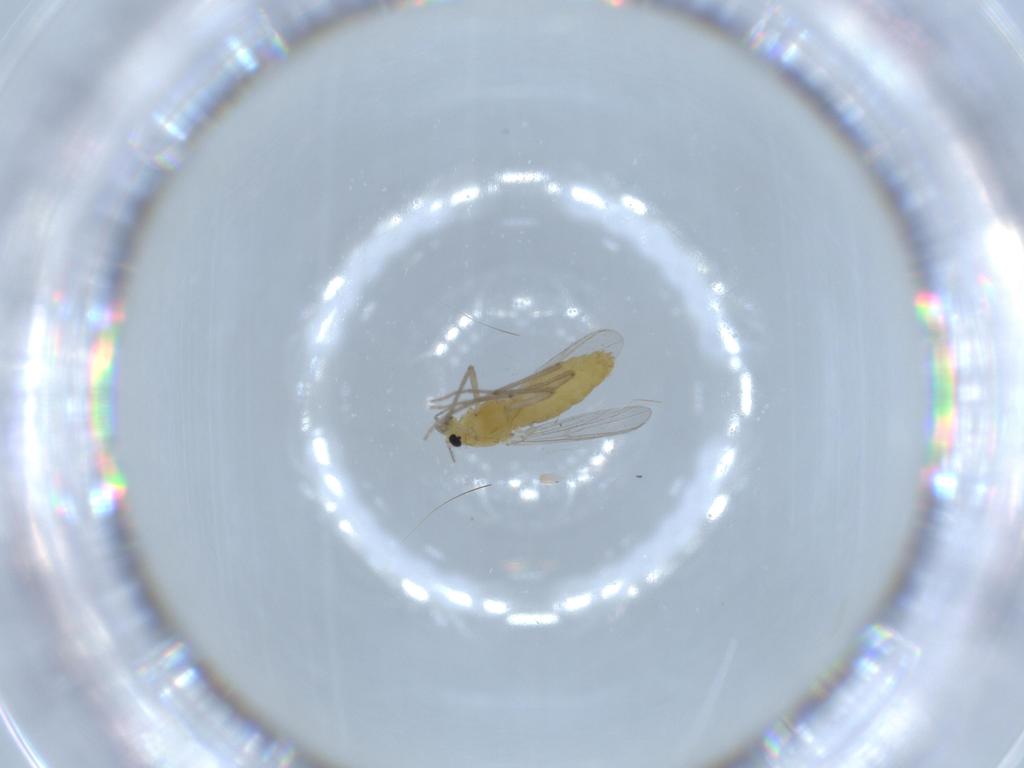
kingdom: Animalia
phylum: Arthropoda
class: Insecta
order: Diptera
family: Chironomidae
